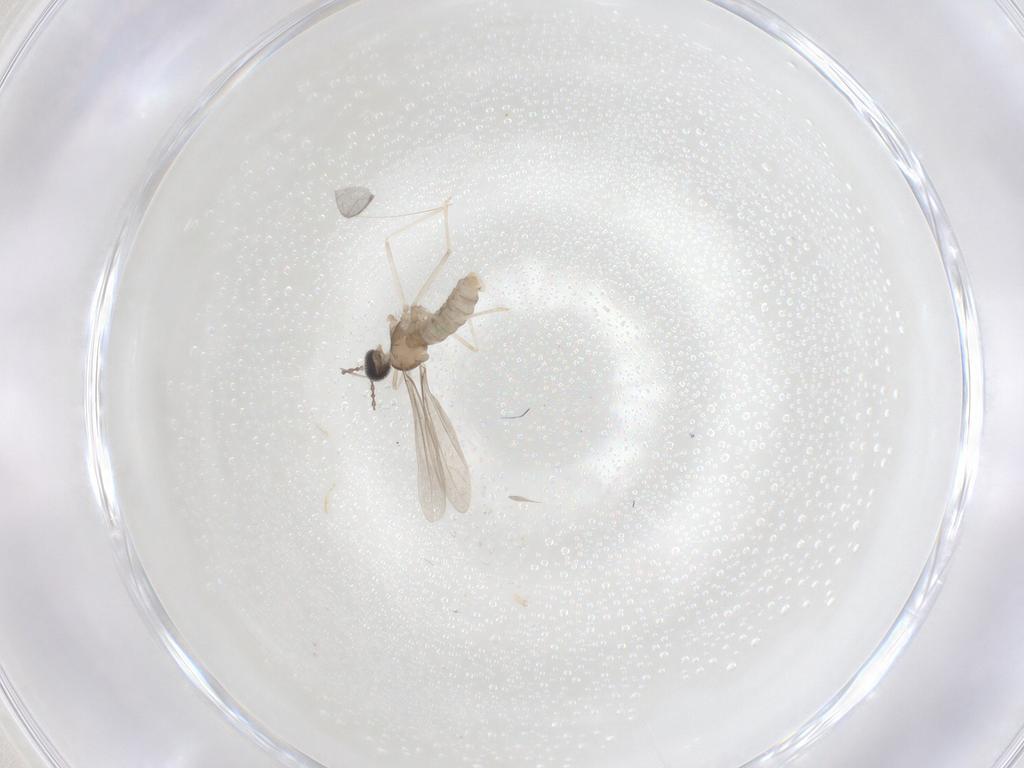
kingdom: Animalia
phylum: Arthropoda
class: Insecta
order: Diptera
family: Cecidomyiidae
